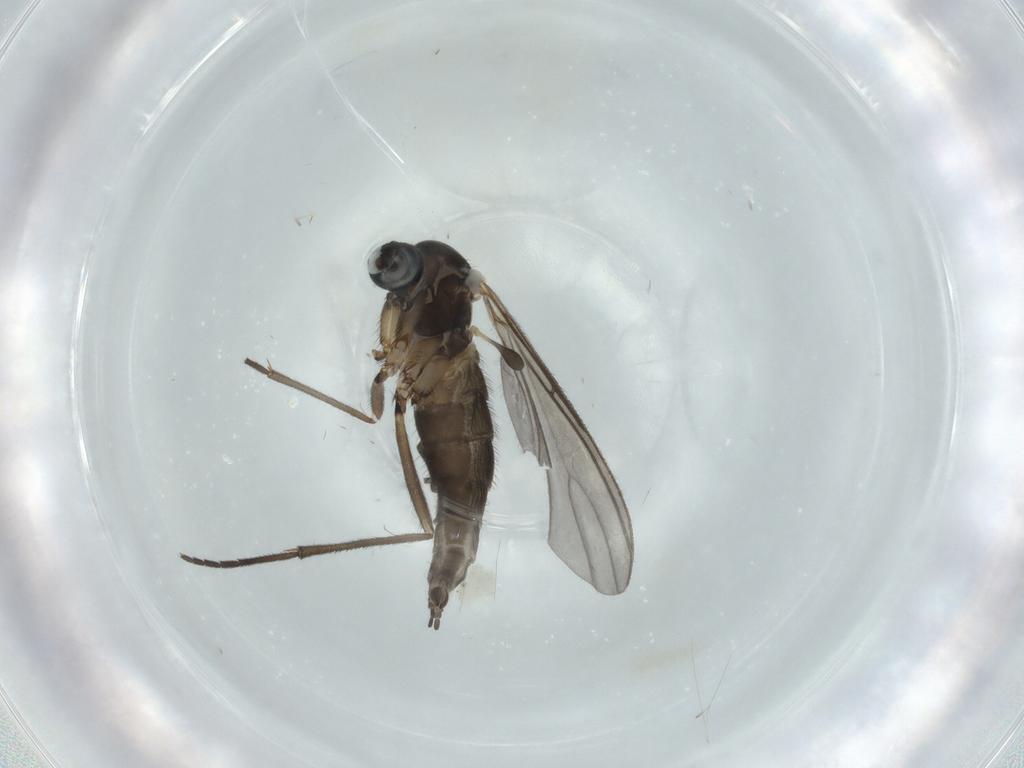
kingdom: Animalia
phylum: Arthropoda
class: Insecta
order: Diptera
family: Sciaridae
